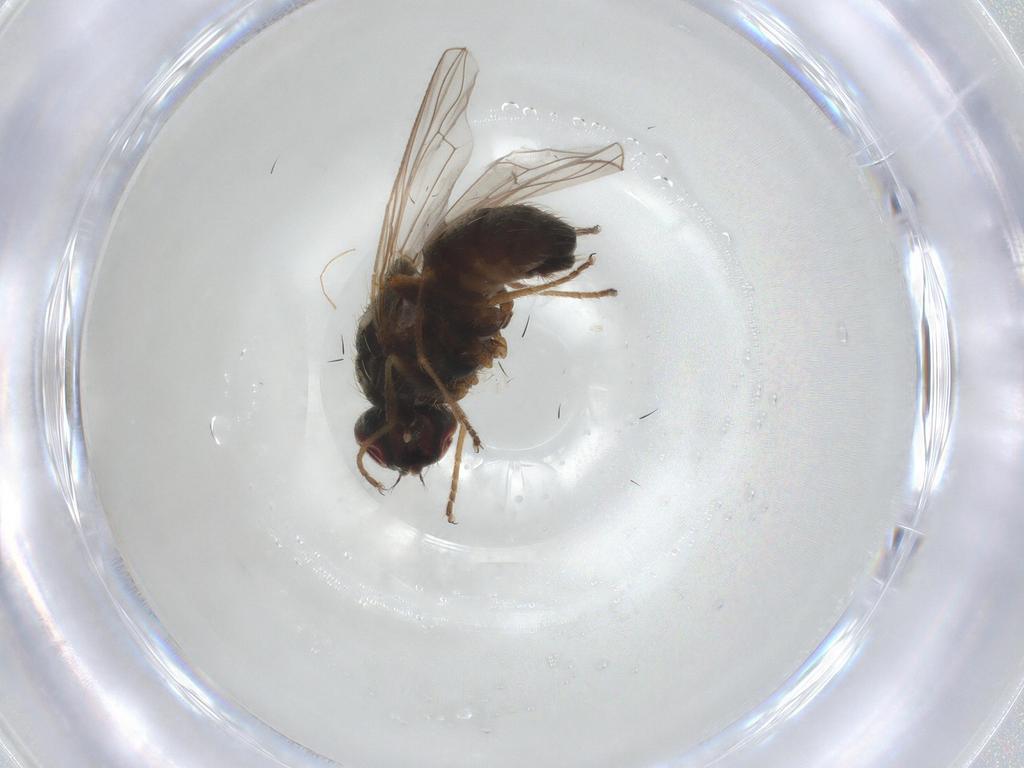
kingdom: Animalia
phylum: Arthropoda
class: Insecta
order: Diptera
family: Muscidae
